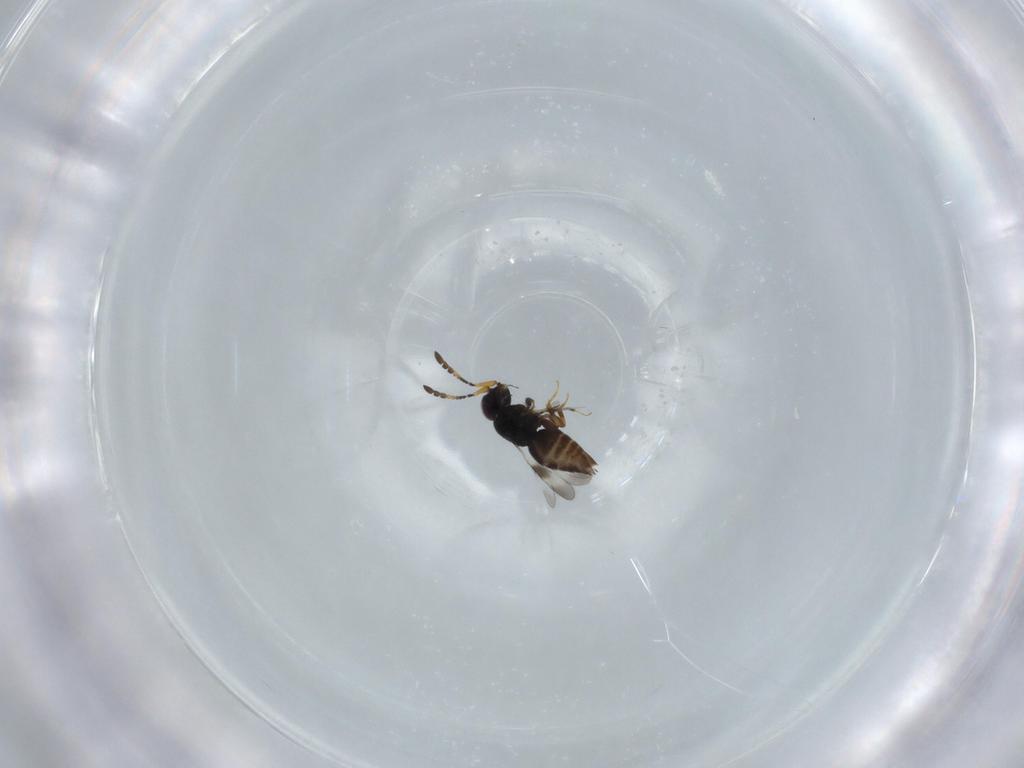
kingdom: Animalia
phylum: Arthropoda
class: Insecta
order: Hymenoptera
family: Ceraphronidae
